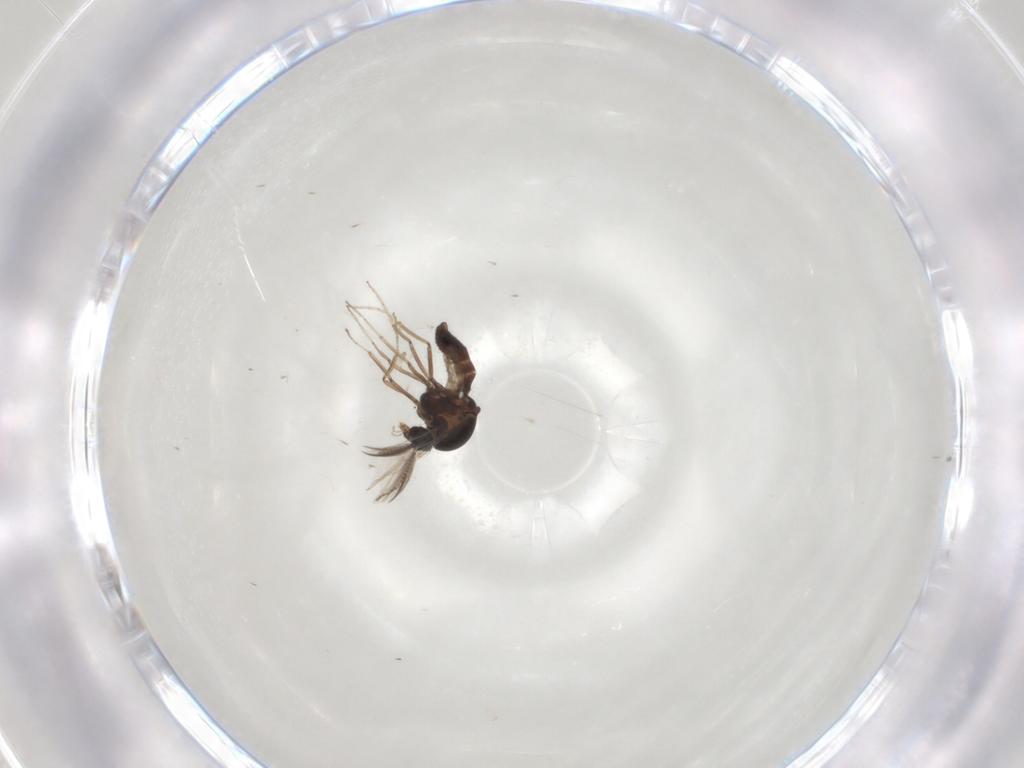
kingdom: Animalia
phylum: Arthropoda
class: Insecta
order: Diptera
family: Ceratopogonidae
